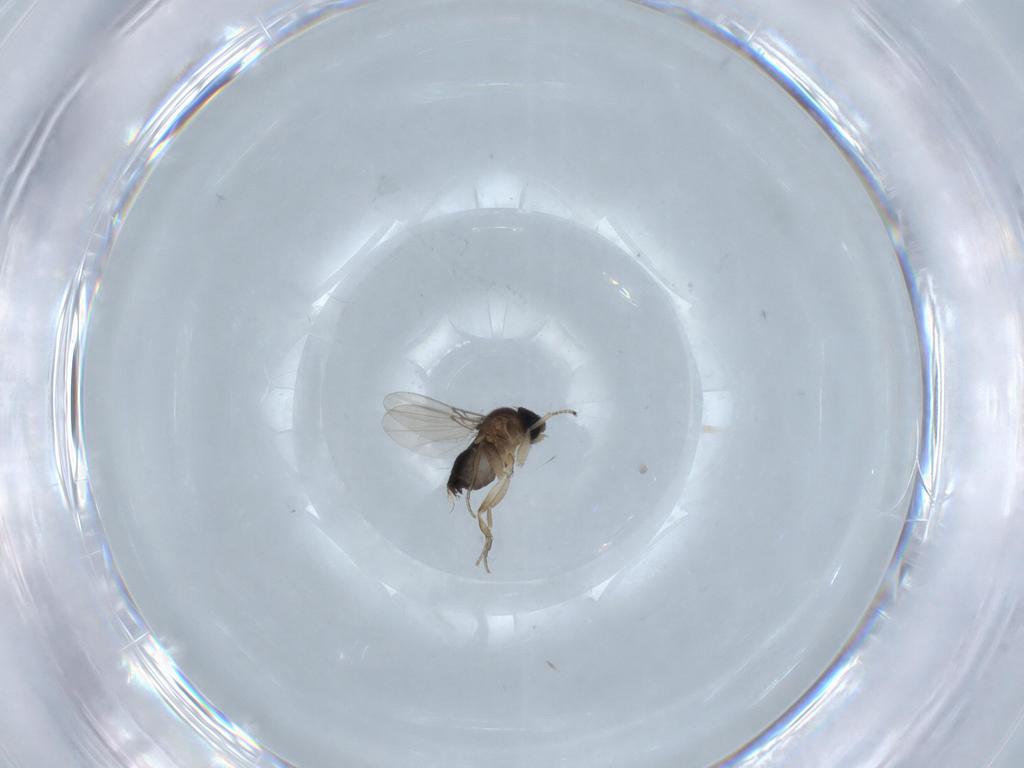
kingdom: Animalia
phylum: Arthropoda
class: Insecta
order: Diptera
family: Phoridae
